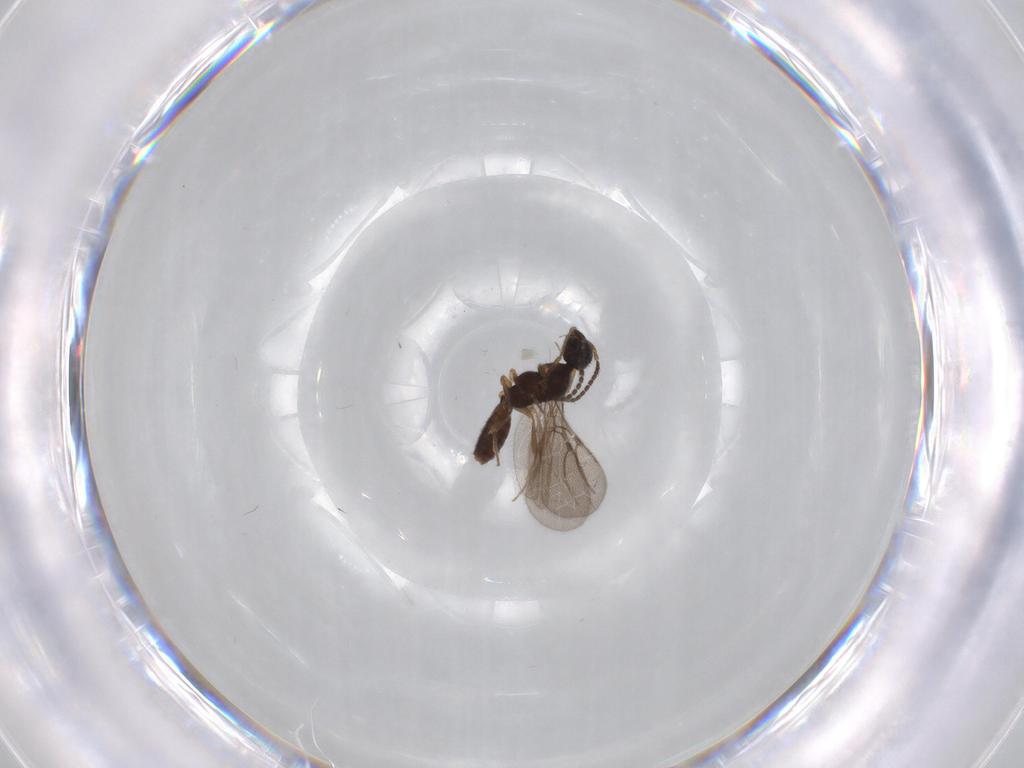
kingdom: Animalia
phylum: Arthropoda
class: Insecta
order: Hymenoptera
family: Bethylidae
